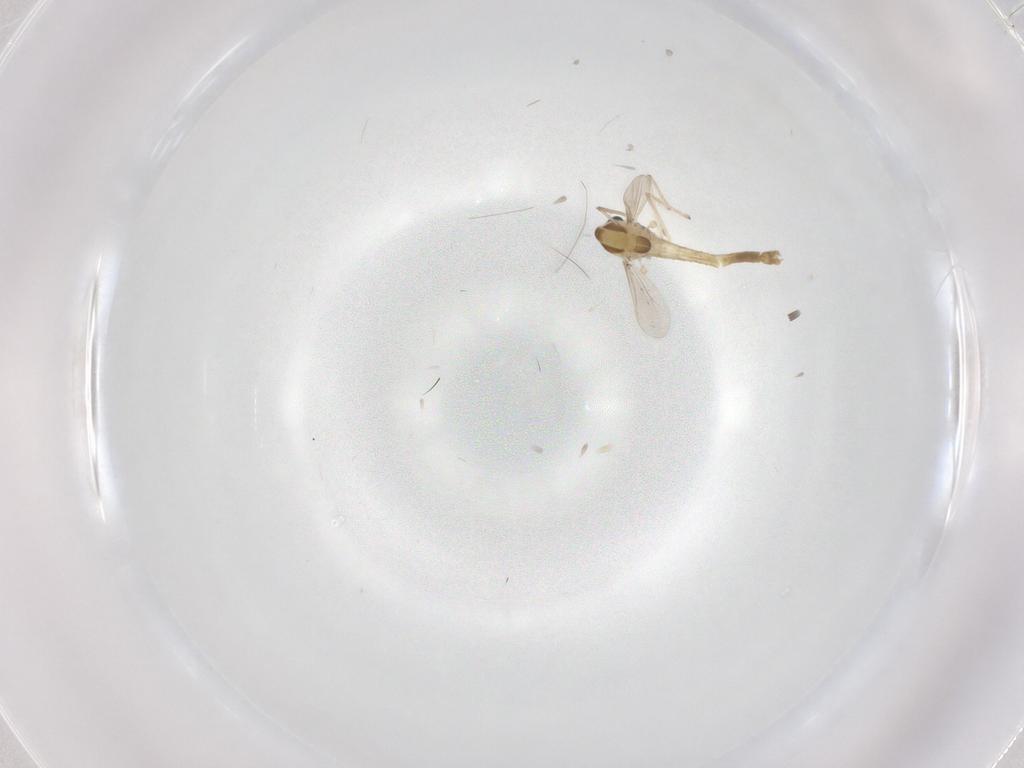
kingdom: Animalia
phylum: Arthropoda
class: Insecta
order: Diptera
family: Chironomidae
